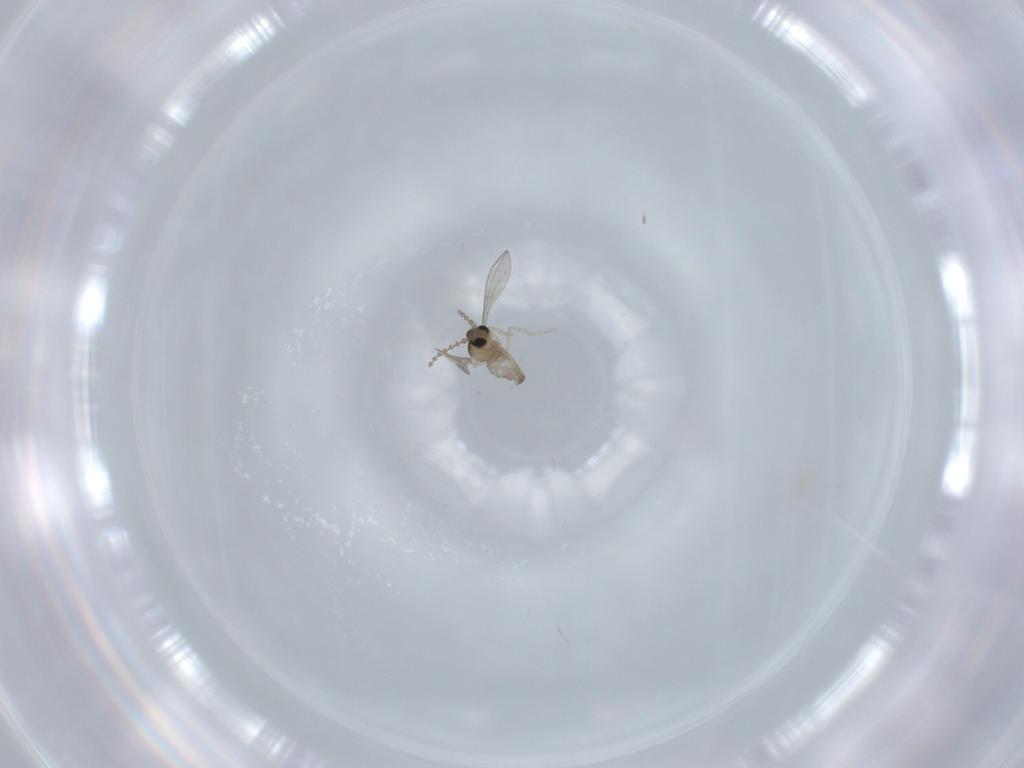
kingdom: Animalia
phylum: Arthropoda
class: Insecta
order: Diptera
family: Cecidomyiidae
